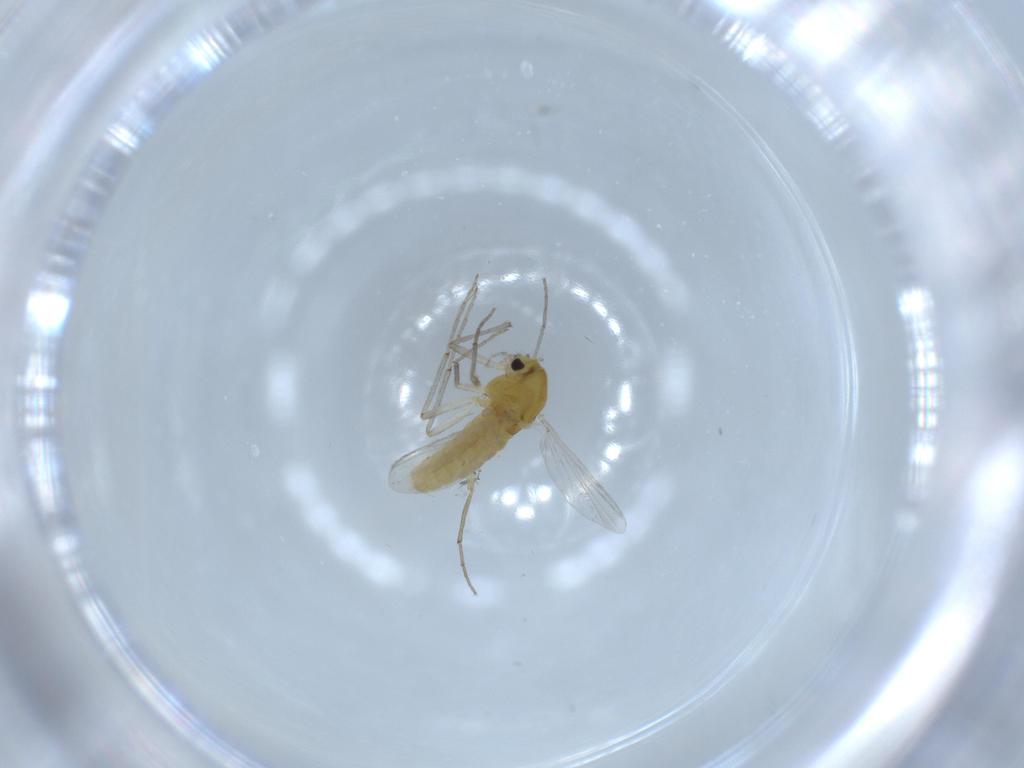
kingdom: Animalia
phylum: Arthropoda
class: Insecta
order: Diptera
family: Chironomidae
